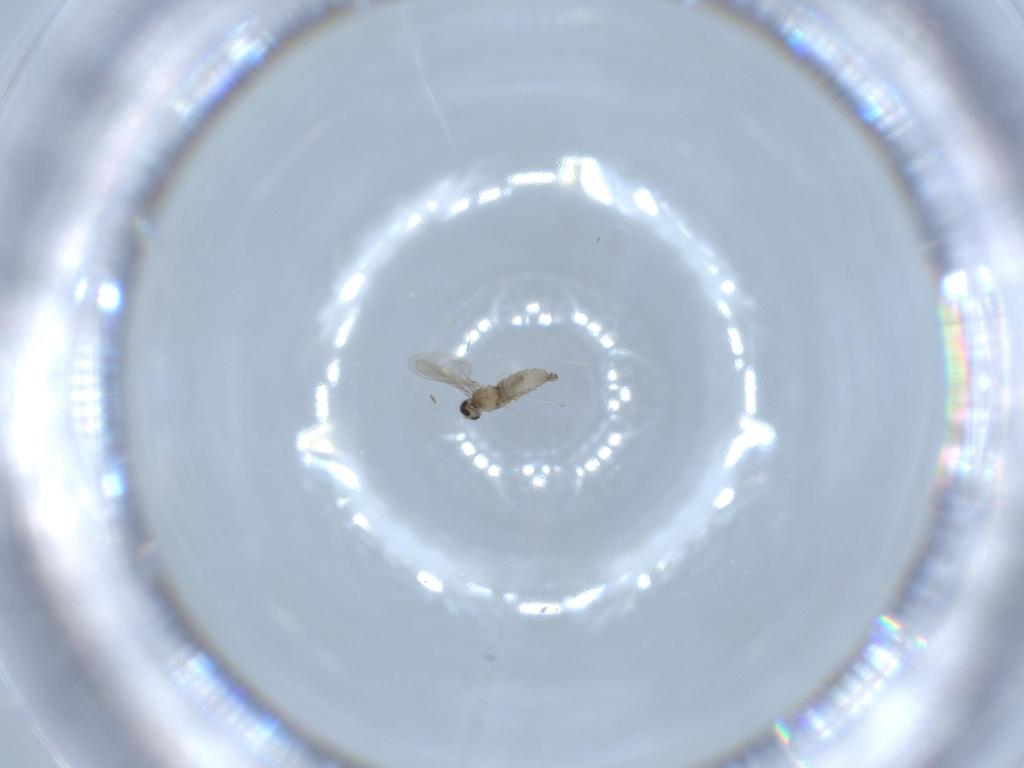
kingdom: Animalia
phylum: Arthropoda
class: Insecta
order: Diptera
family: Cecidomyiidae
